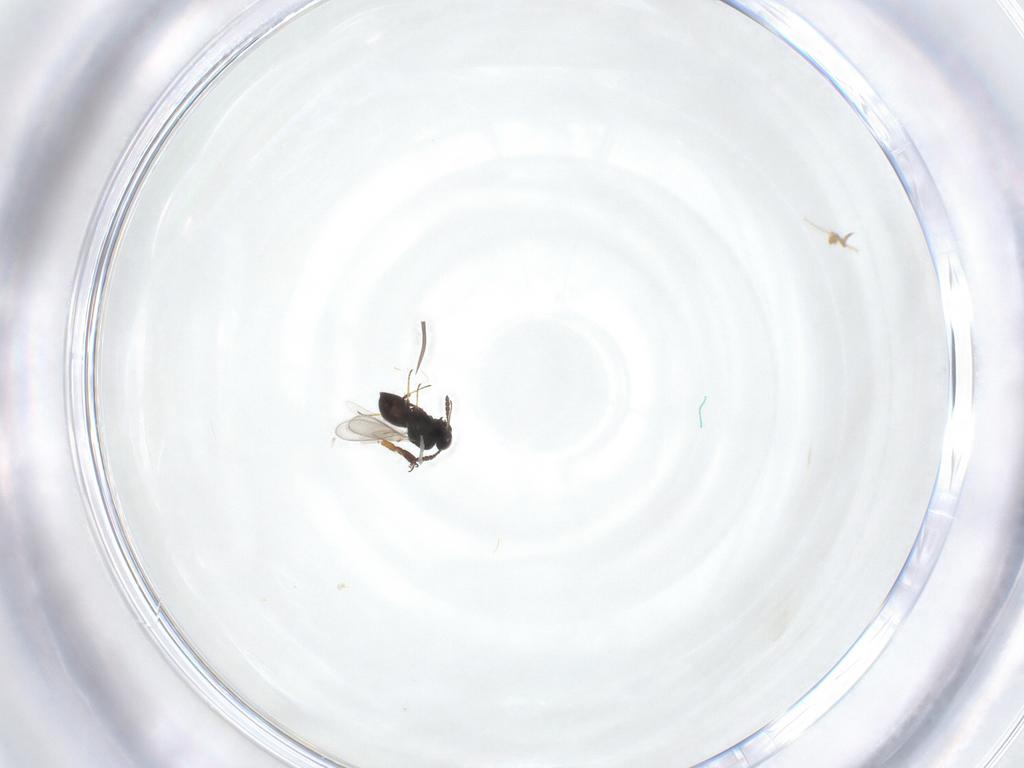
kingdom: Animalia
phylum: Arthropoda
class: Insecta
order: Hymenoptera
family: Scelionidae
